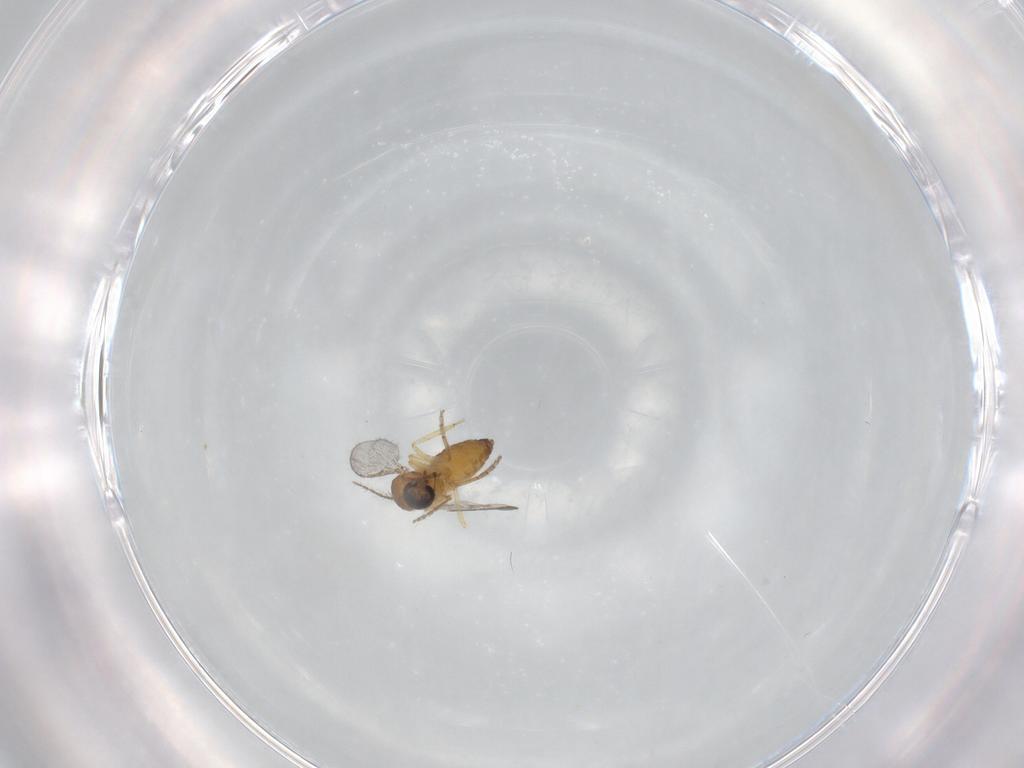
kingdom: Animalia
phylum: Arthropoda
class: Insecta
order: Diptera
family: Ceratopogonidae
